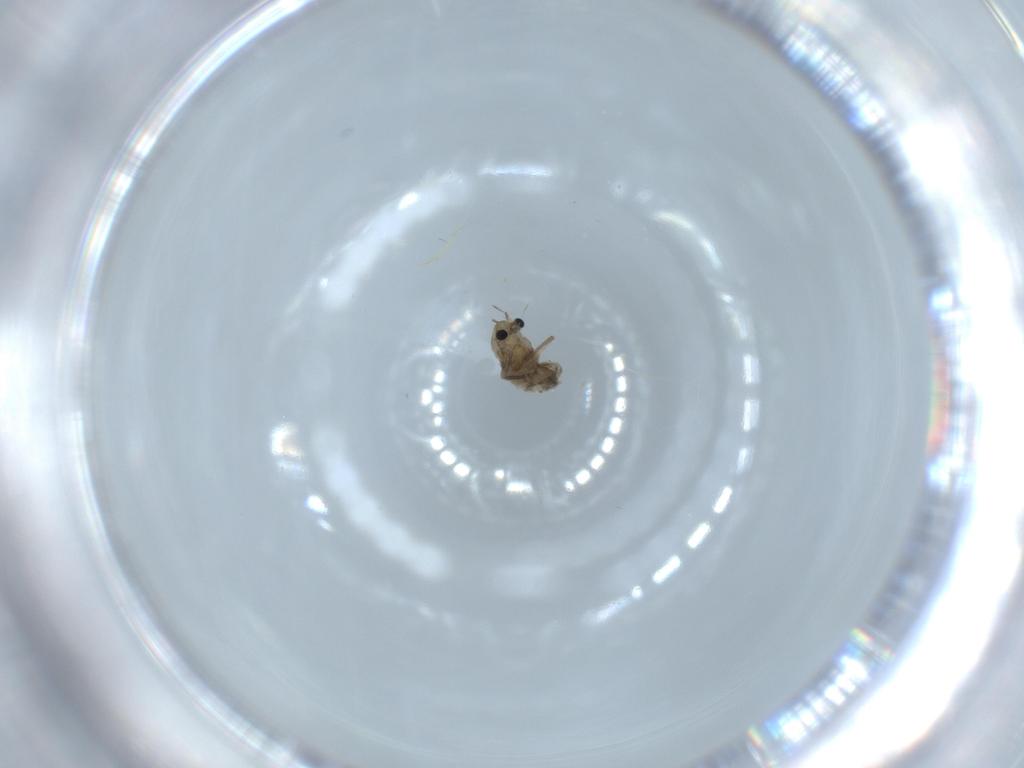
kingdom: Animalia
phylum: Arthropoda
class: Insecta
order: Diptera
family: Chironomidae
